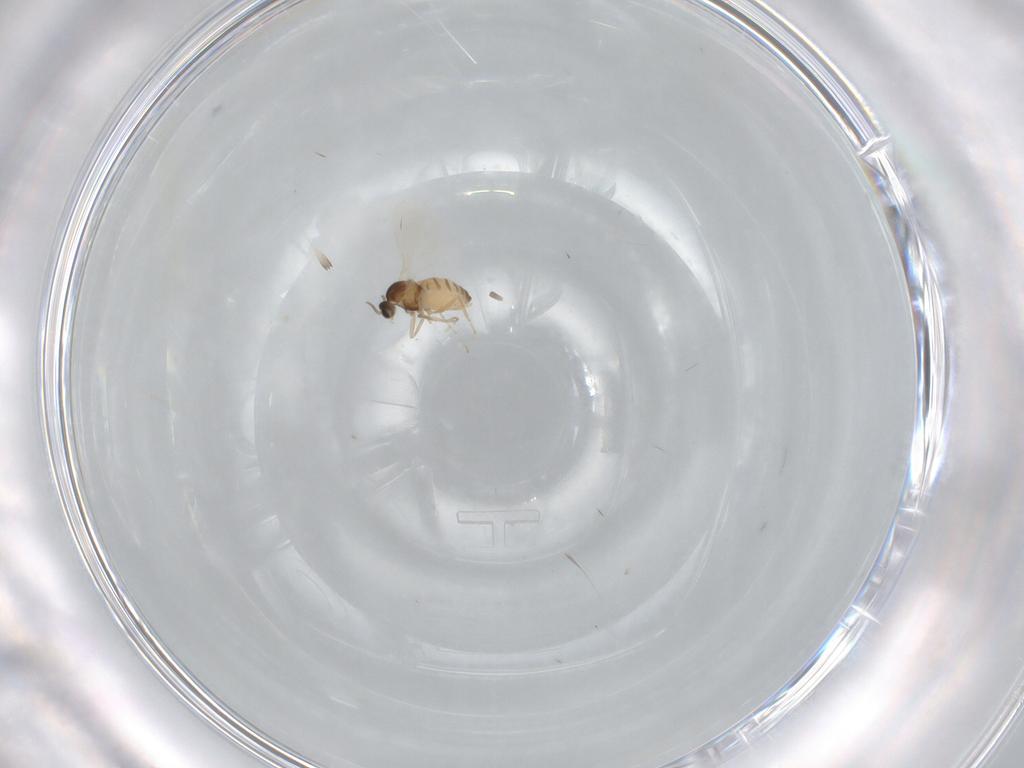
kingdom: Animalia
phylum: Arthropoda
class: Insecta
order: Diptera
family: Cecidomyiidae
